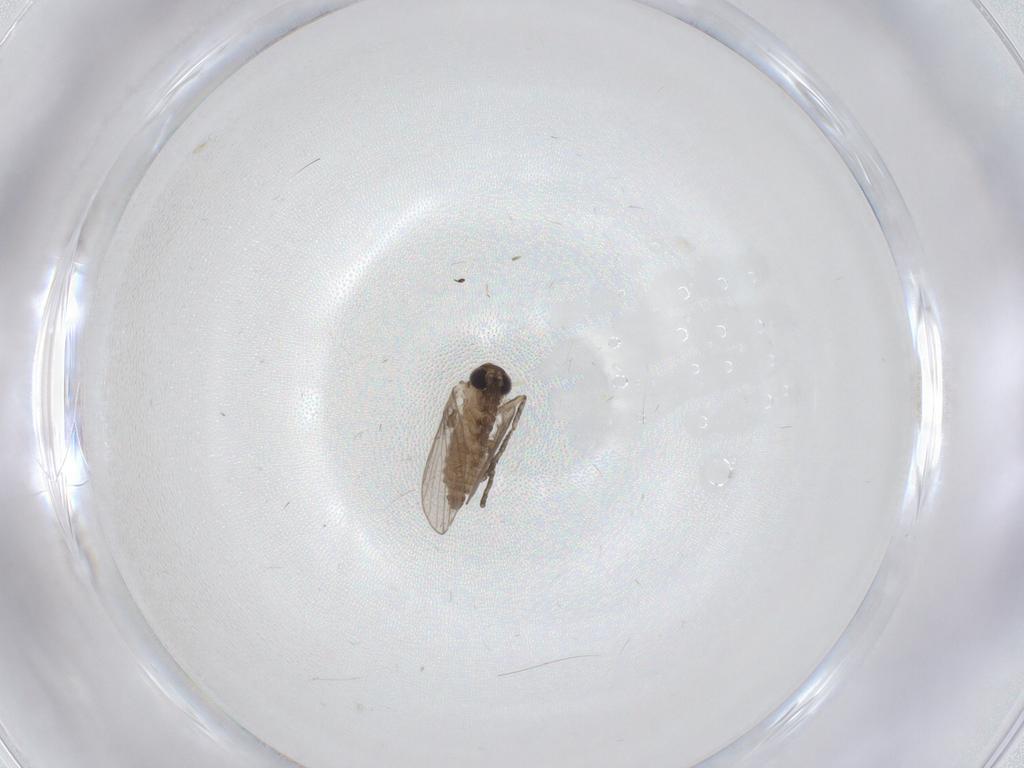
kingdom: Animalia
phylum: Arthropoda
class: Insecta
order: Diptera
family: Psychodidae
